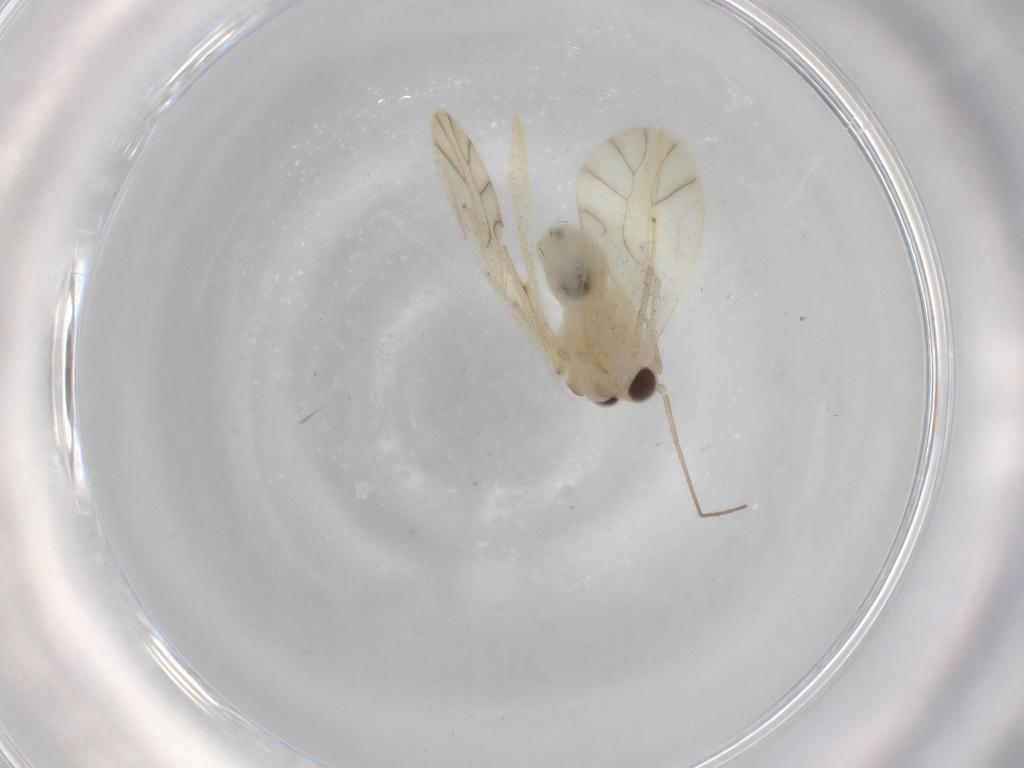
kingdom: Animalia
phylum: Arthropoda
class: Insecta
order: Psocodea
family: Caeciliusidae
